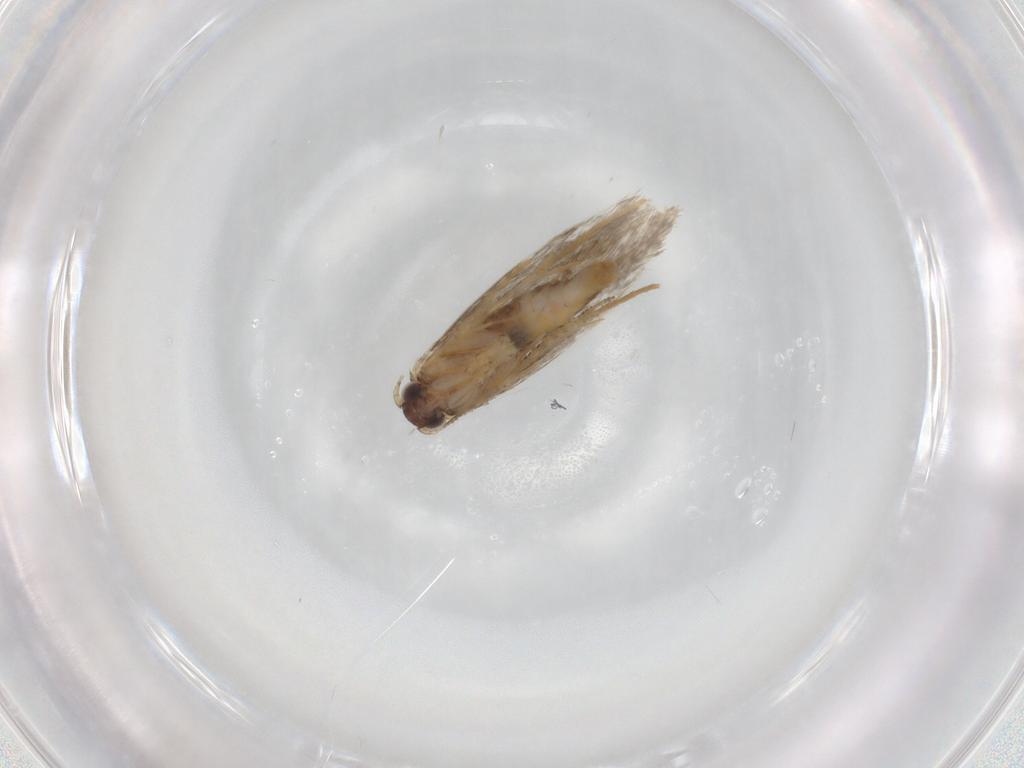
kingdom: Animalia
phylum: Arthropoda
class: Insecta
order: Lepidoptera
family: Tineidae
